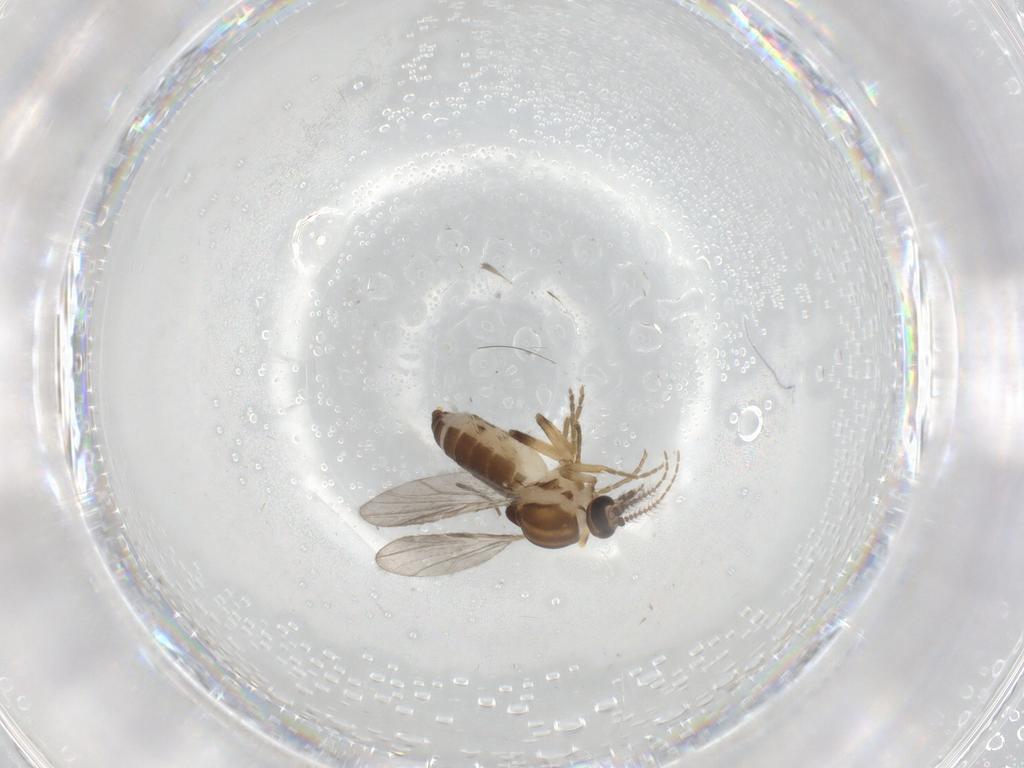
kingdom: Animalia
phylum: Arthropoda
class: Insecta
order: Diptera
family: Ceratopogonidae
